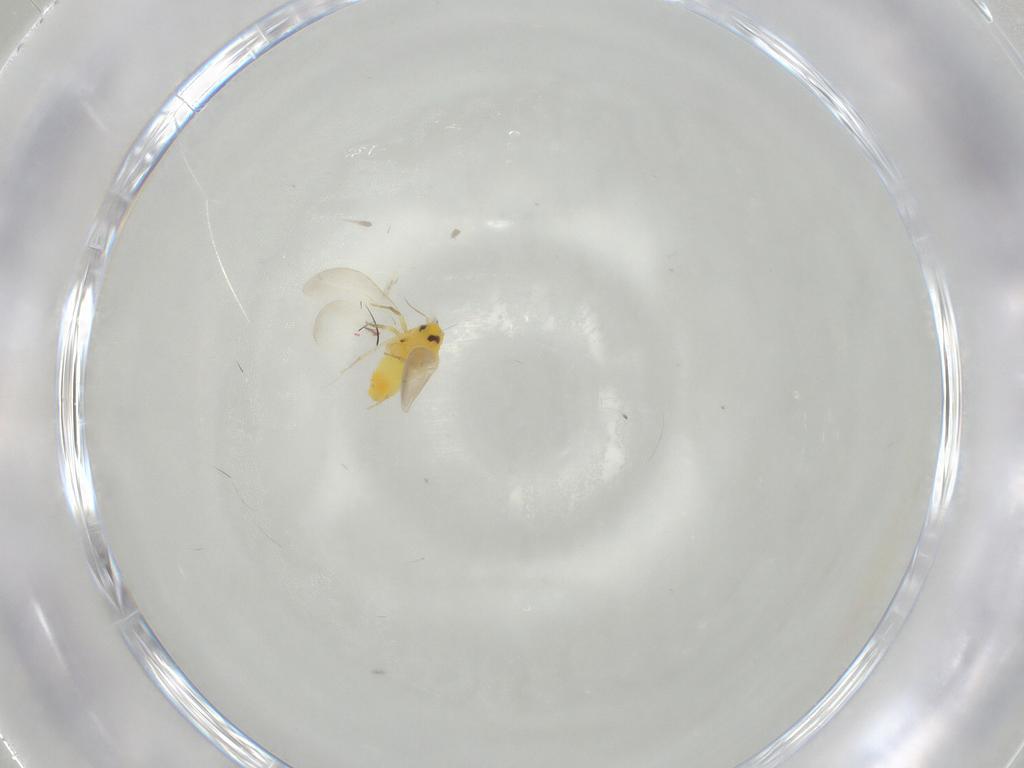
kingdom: Animalia
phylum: Arthropoda
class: Insecta
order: Hemiptera
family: Aleyrodidae
